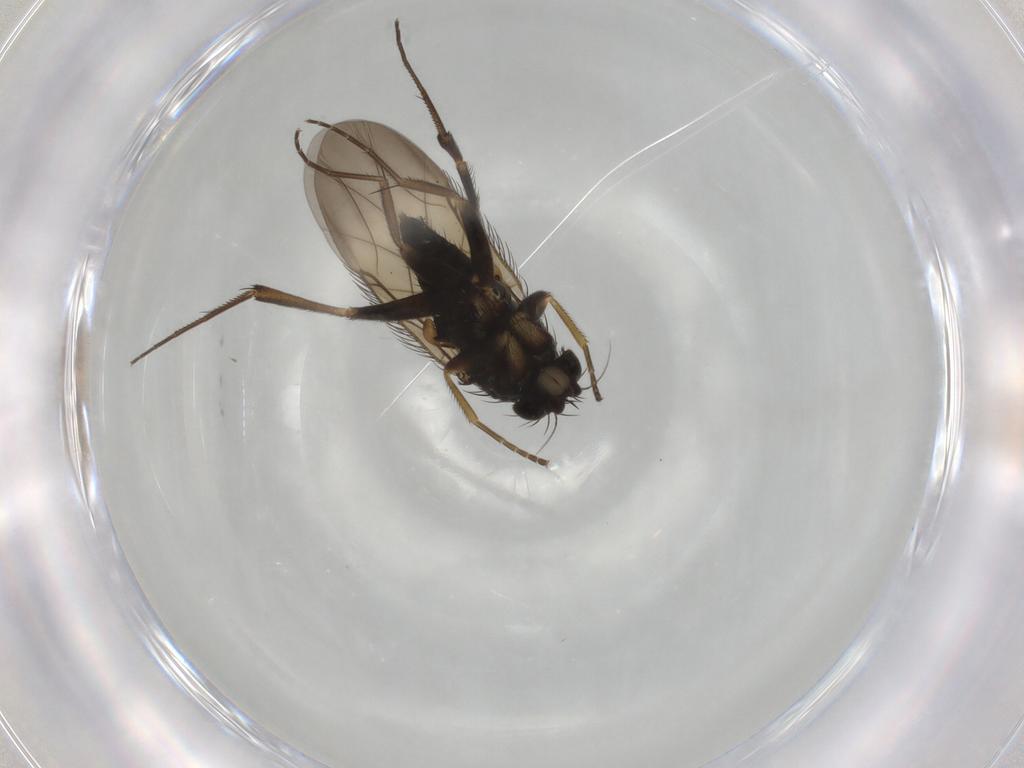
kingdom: Animalia
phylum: Arthropoda
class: Insecta
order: Diptera
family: Phoridae
